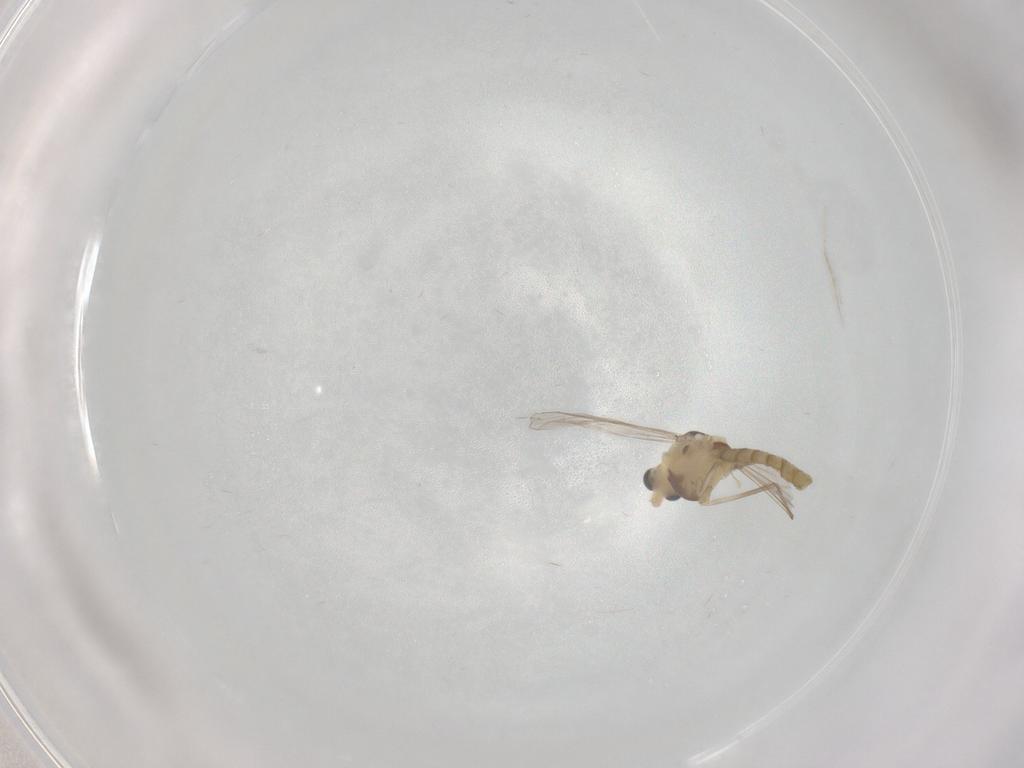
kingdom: Animalia
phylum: Arthropoda
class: Insecta
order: Diptera
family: Chironomidae
